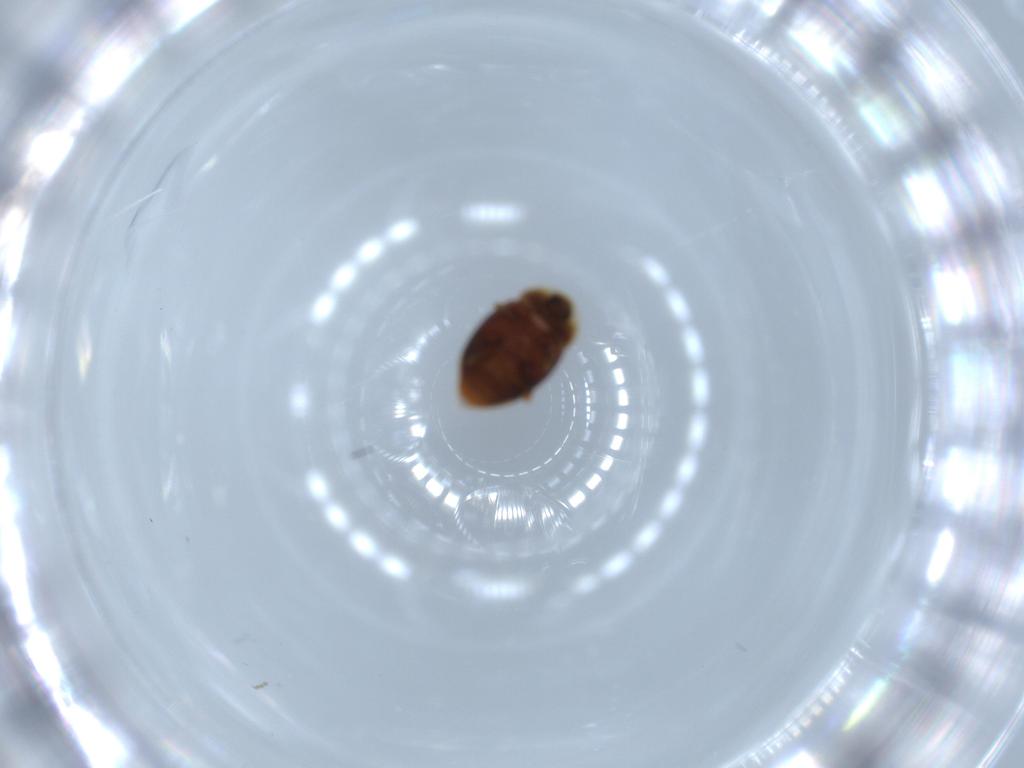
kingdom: Animalia
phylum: Arthropoda
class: Insecta
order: Coleoptera
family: Corylophidae
